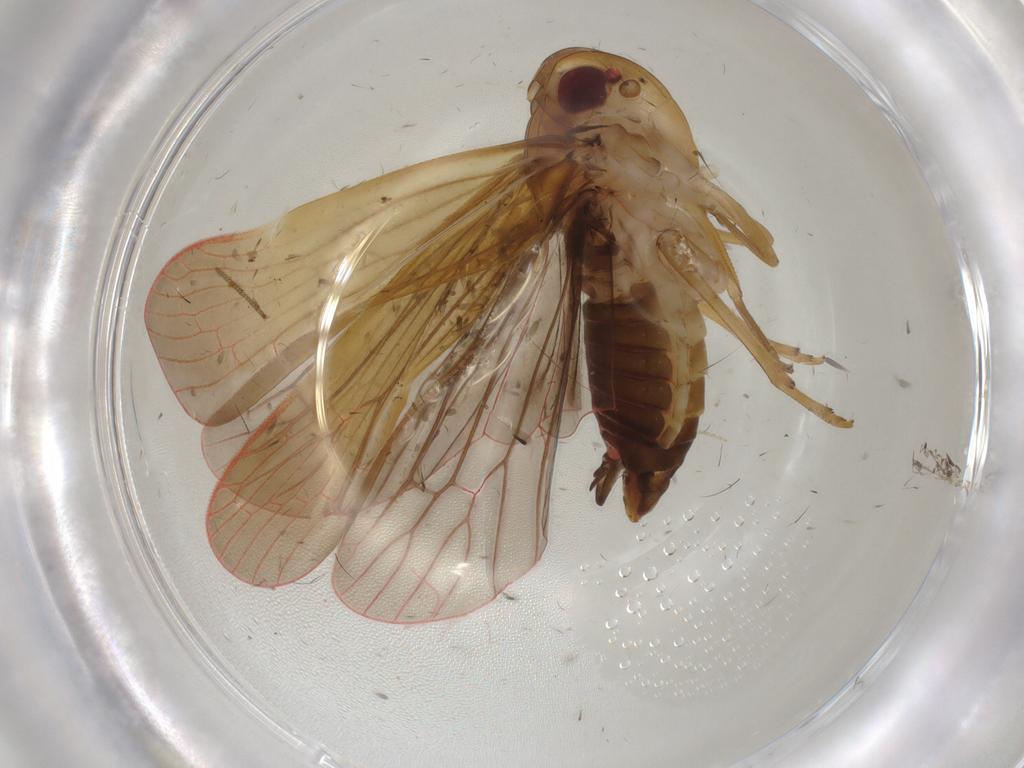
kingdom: Animalia
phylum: Arthropoda
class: Insecta
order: Hemiptera
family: Achilidae
